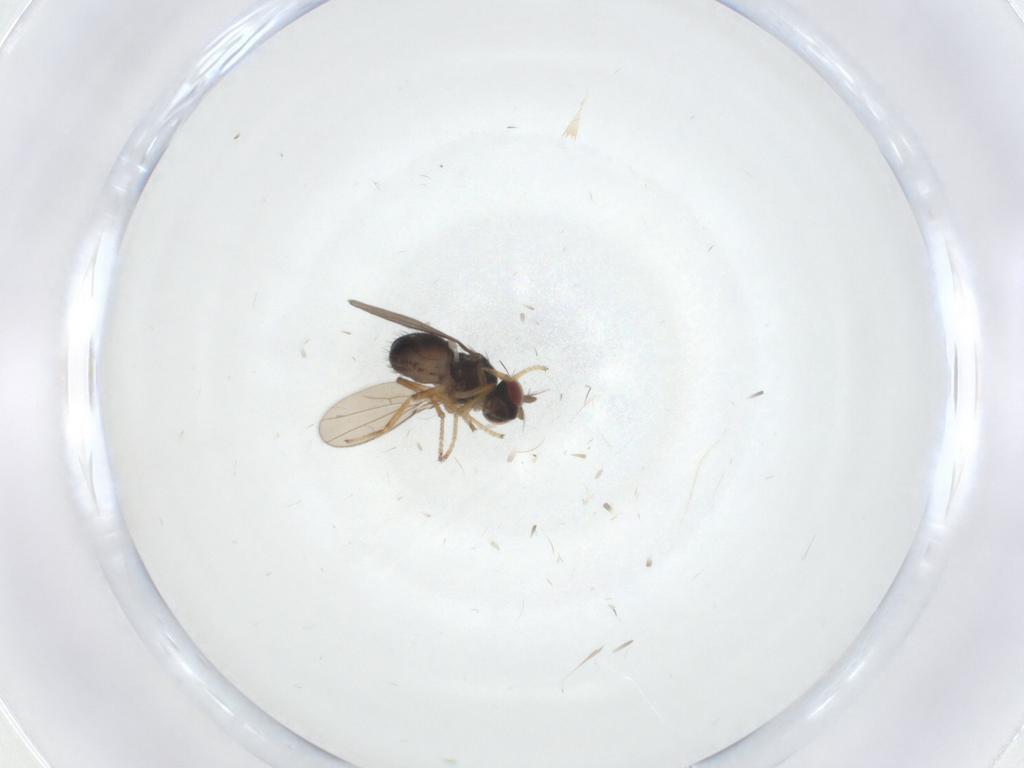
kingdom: Animalia
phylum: Arthropoda
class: Insecta
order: Diptera
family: Ephydridae
